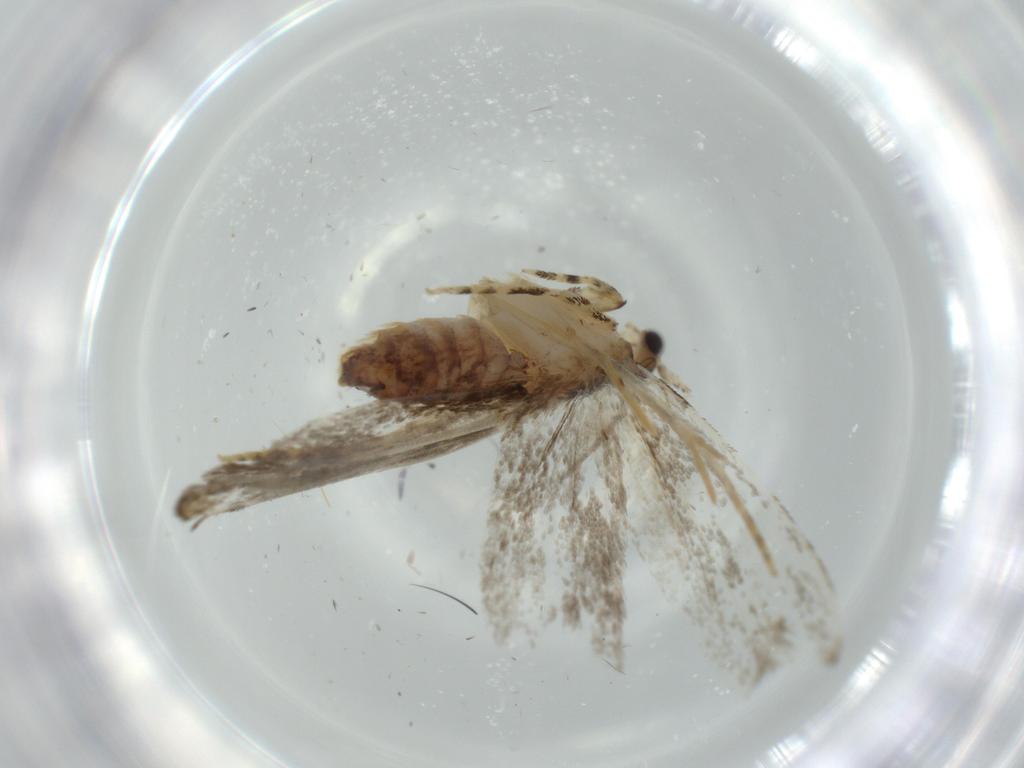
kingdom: Animalia
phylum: Arthropoda
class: Insecta
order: Lepidoptera
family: Tineidae
